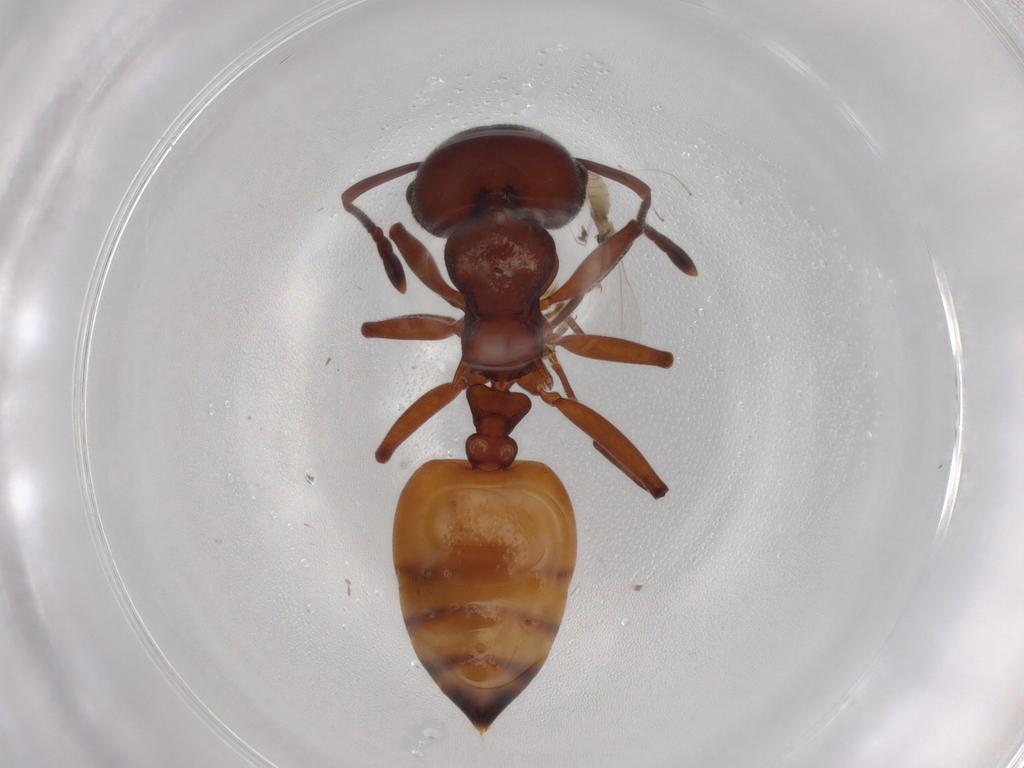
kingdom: Animalia
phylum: Arthropoda
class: Insecta
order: Hymenoptera
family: Formicidae
